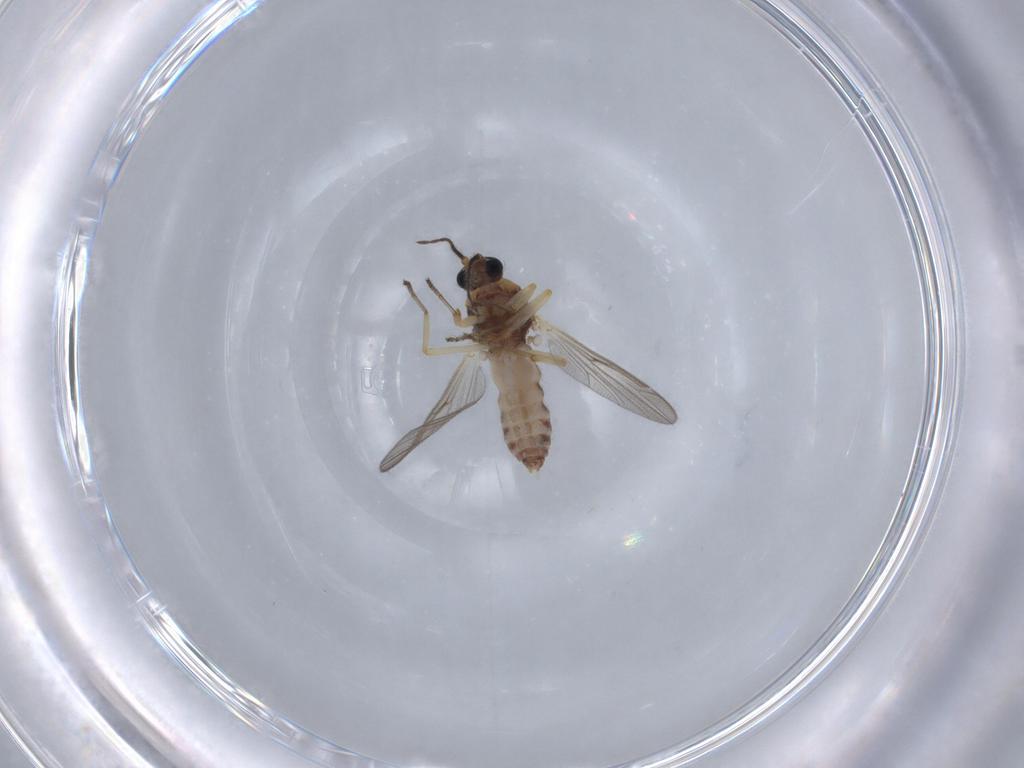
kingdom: Animalia
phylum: Arthropoda
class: Insecta
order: Diptera
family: Ceratopogonidae
